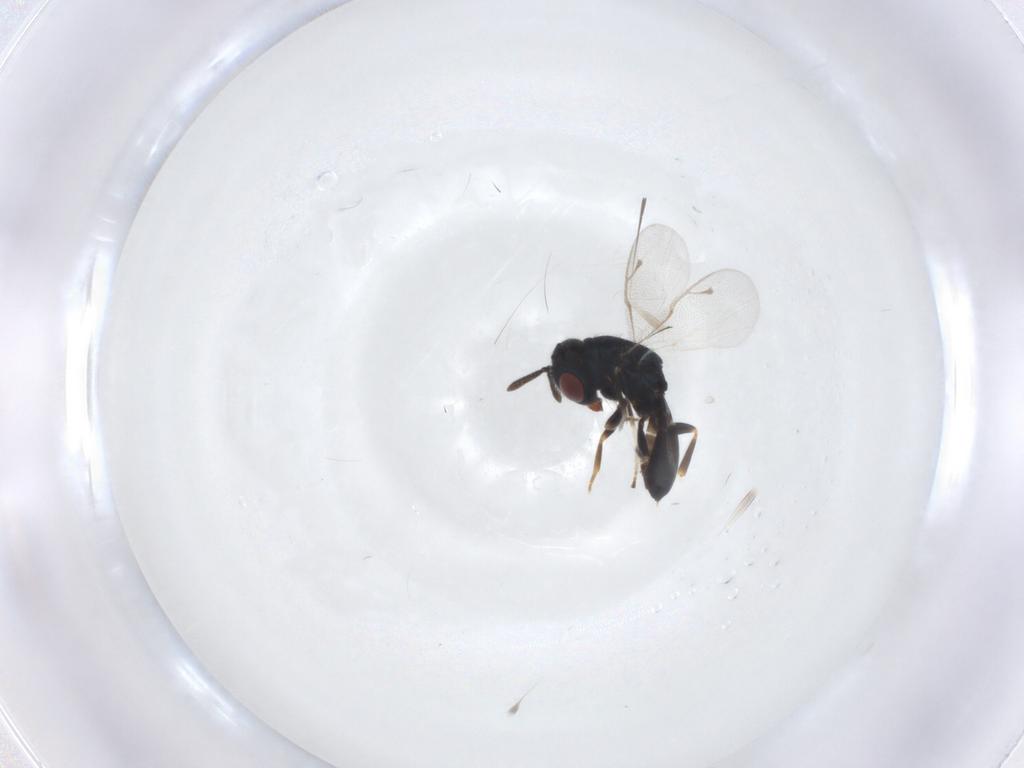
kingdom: Animalia
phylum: Arthropoda
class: Insecta
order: Hymenoptera
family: Pteromalidae
